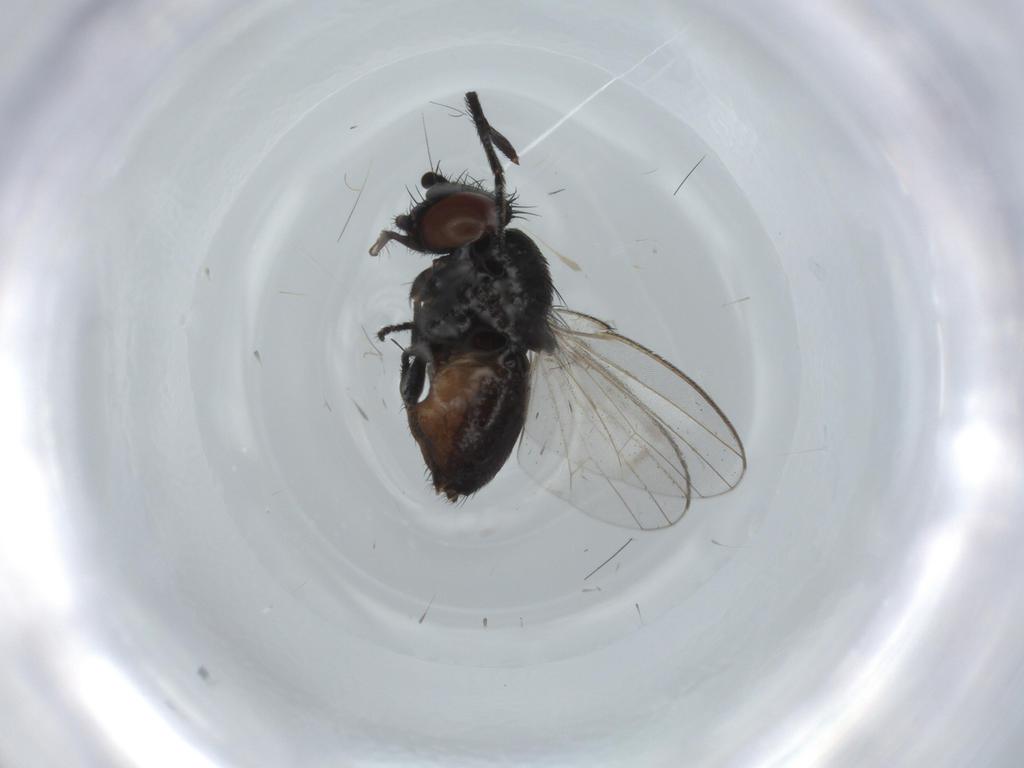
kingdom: Animalia
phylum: Arthropoda
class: Insecta
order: Diptera
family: Milichiidae
